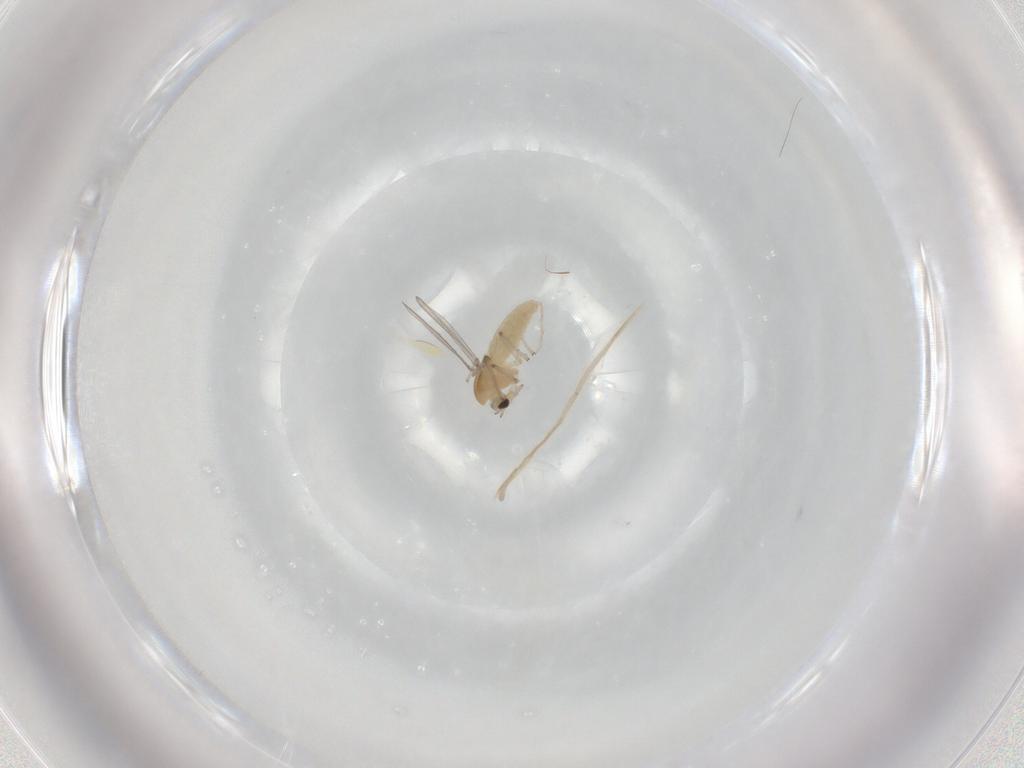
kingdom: Animalia
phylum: Arthropoda
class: Insecta
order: Diptera
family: Chironomidae
